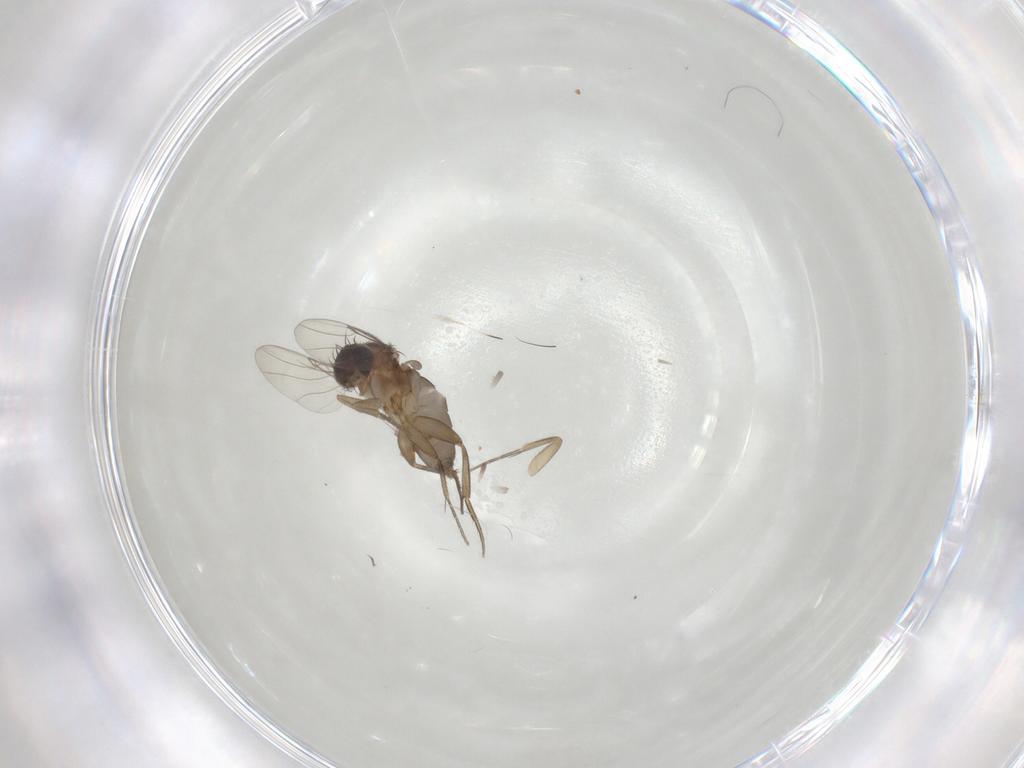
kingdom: Animalia
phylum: Arthropoda
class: Insecta
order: Diptera
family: Phoridae
